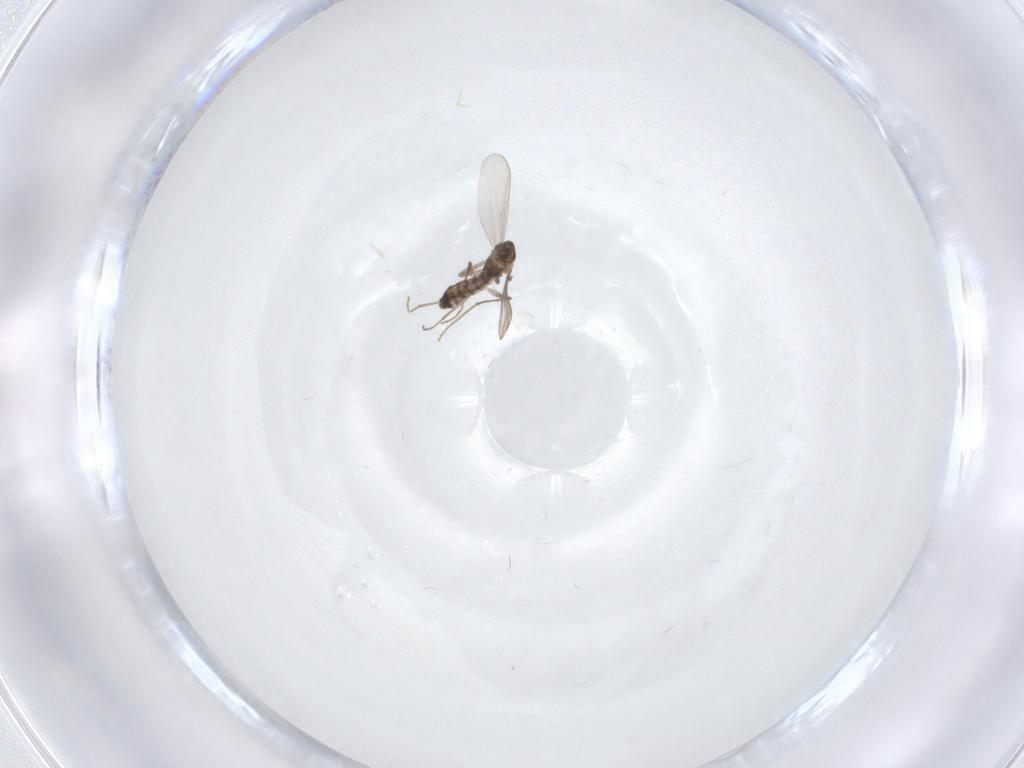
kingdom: Animalia
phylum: Arthropoda
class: Insecta
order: Diptera
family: Chironomidae
